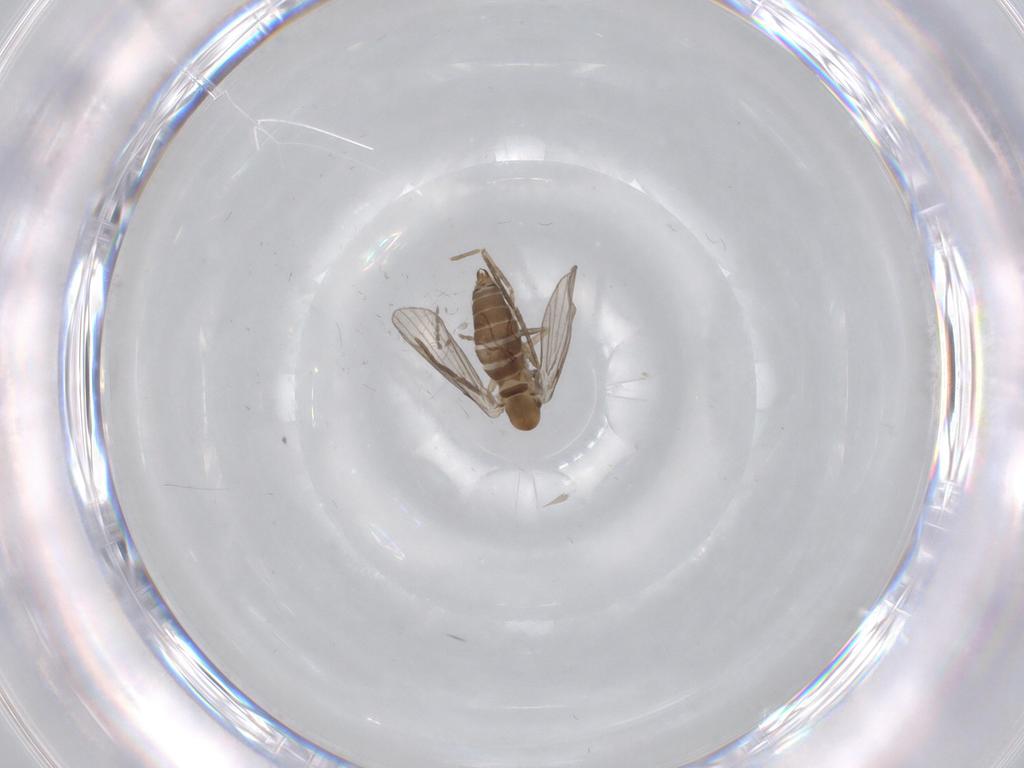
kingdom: Animalia
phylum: Arthropoda
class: Insecta
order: Diptera
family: Psychodidae
